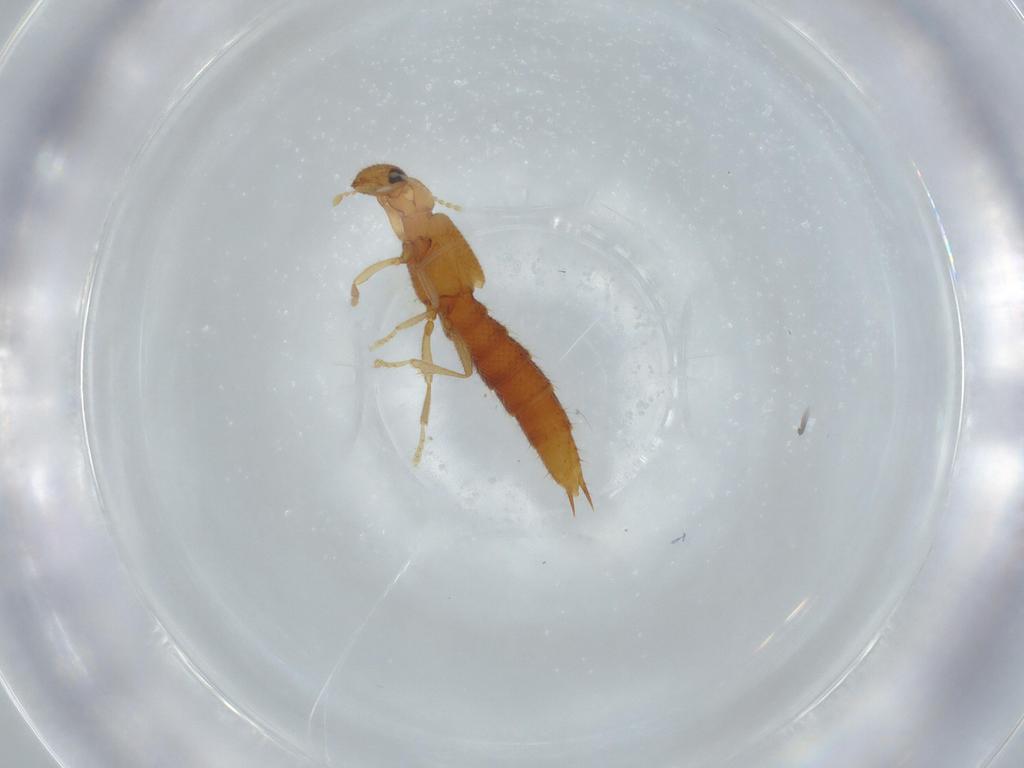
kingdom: Animalia
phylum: Arthropoda
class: Insecta
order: Coleoptera
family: Staphylinidae
